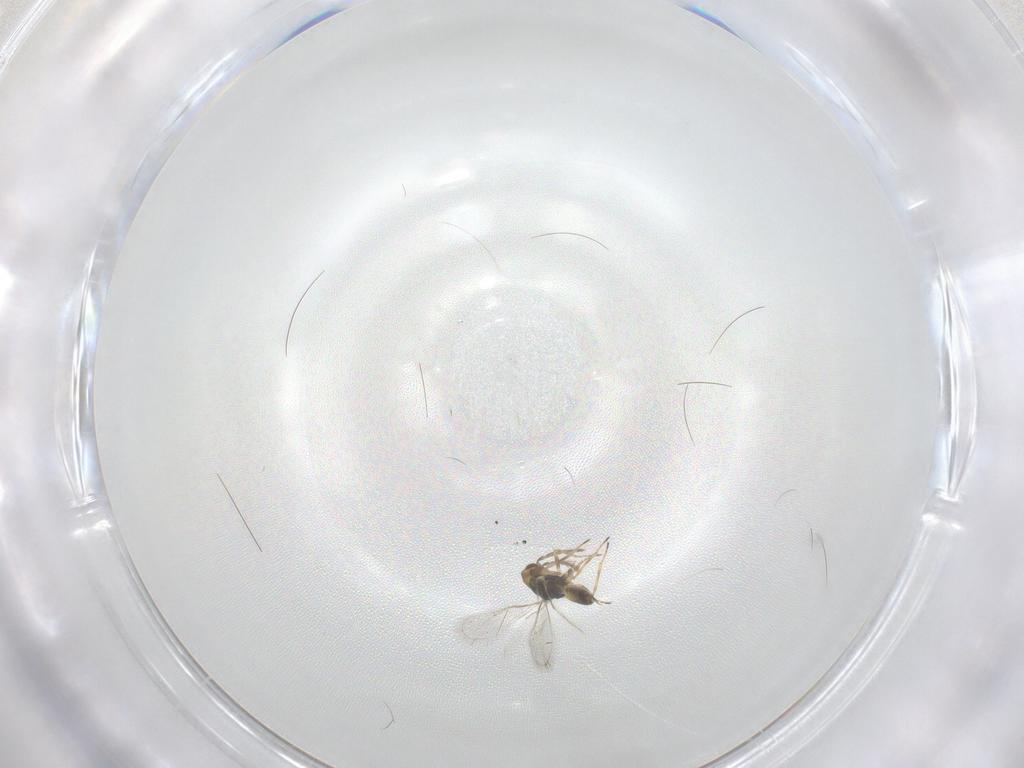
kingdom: Animalia
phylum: Arthropoda
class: Insecta
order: Hymenoptera
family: Eulophidae
